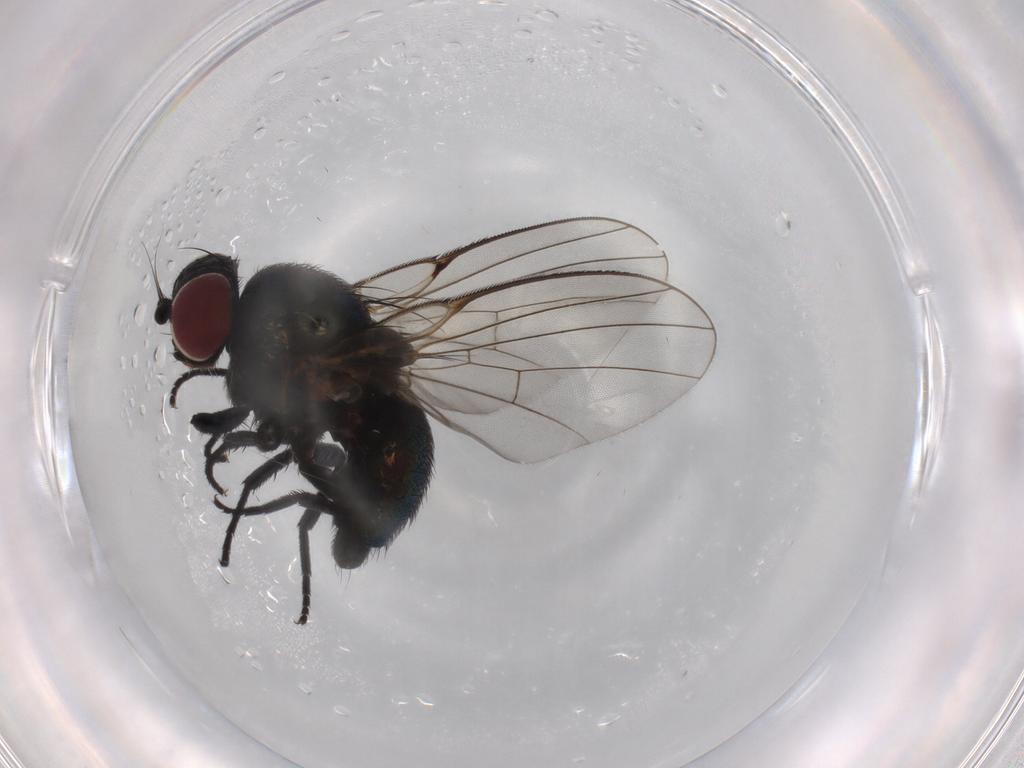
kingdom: Animalia
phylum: Arthropoda
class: Insecta
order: Diptera
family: Agromyzidae
